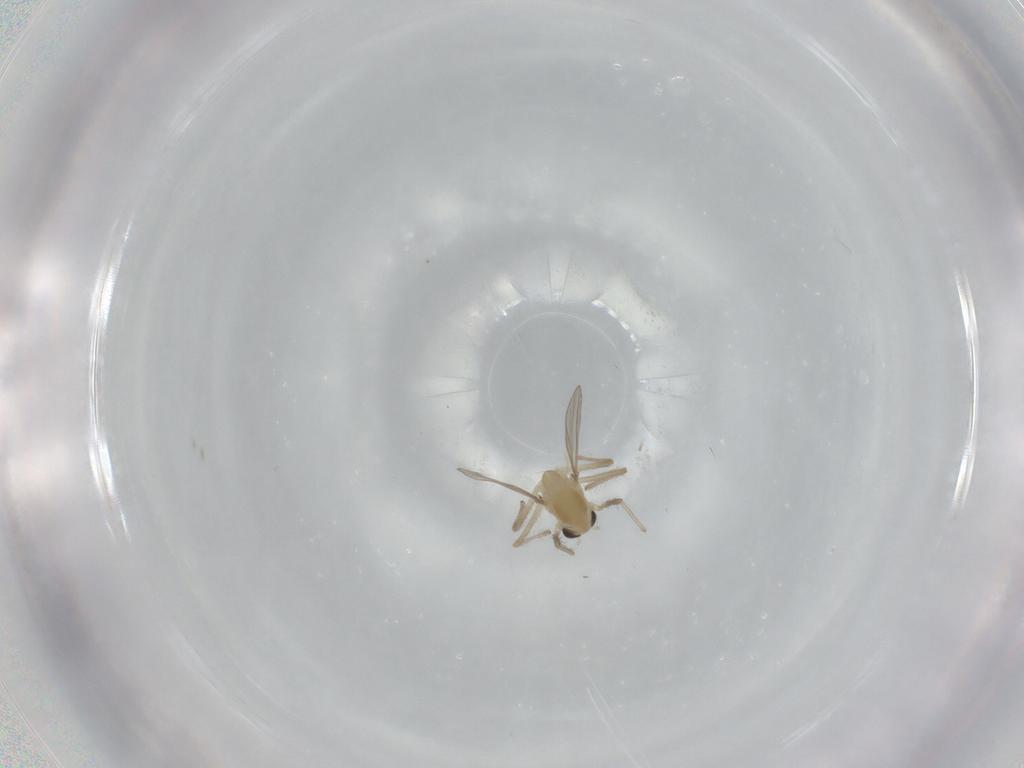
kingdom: Animalia
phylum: Arthropoda
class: Insecta
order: Diptera
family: Chironomidae
